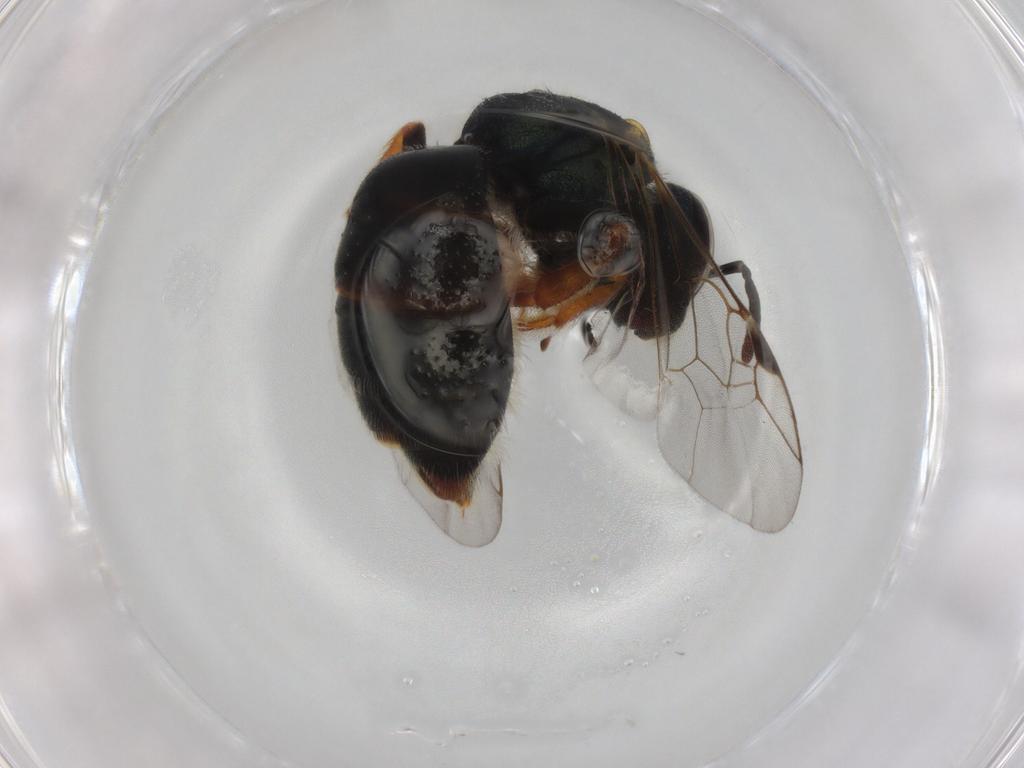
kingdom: Animalia
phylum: Arthropoda
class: Insecta
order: Hymenoptera
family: Halictidae
